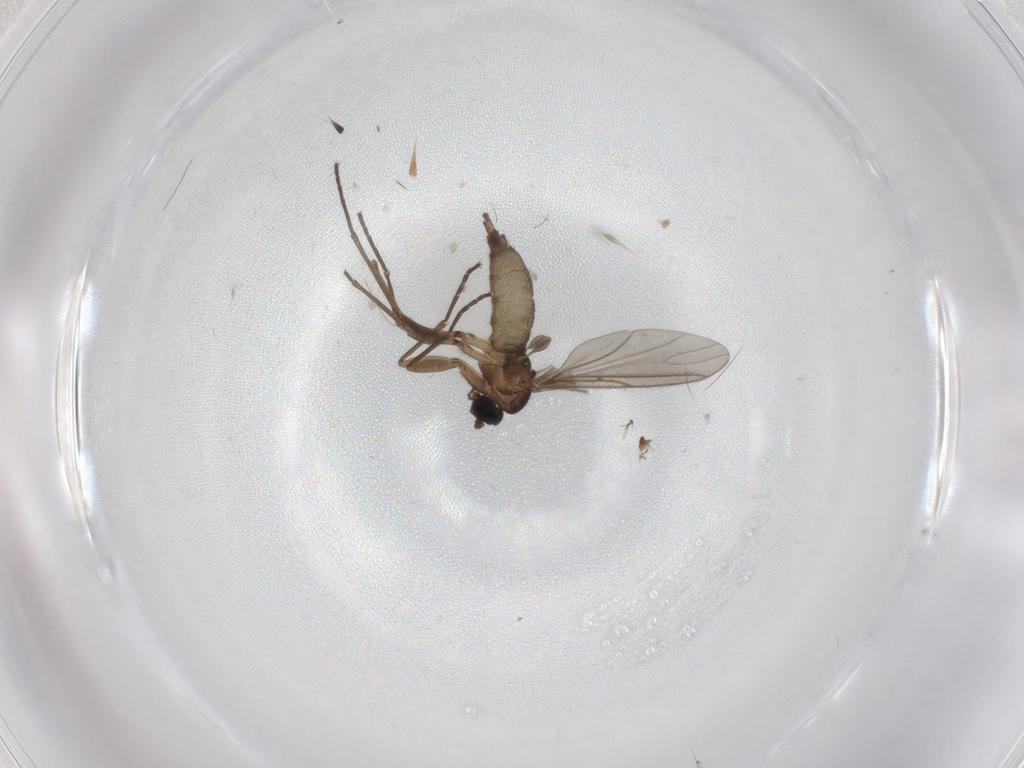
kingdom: Animalia
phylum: Arthropoda
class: Insecta
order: Diptera
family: Sciaridae
